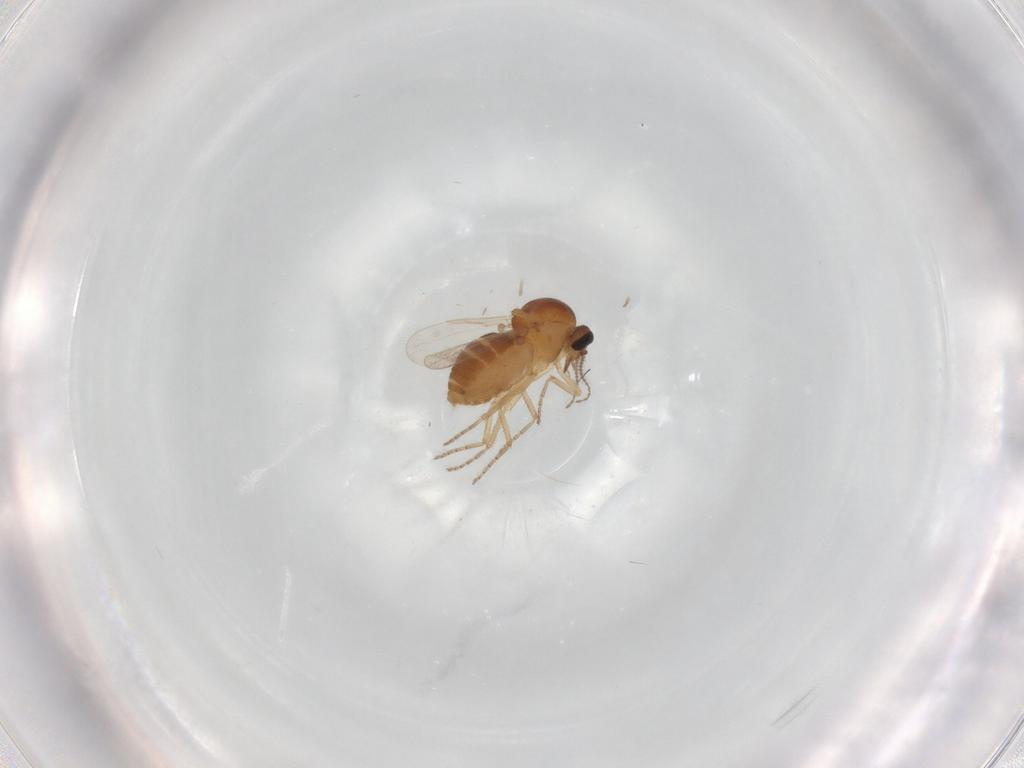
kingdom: Animalia
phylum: Arthropoda
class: Insecta
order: Diptera
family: Ceratopogonidae
